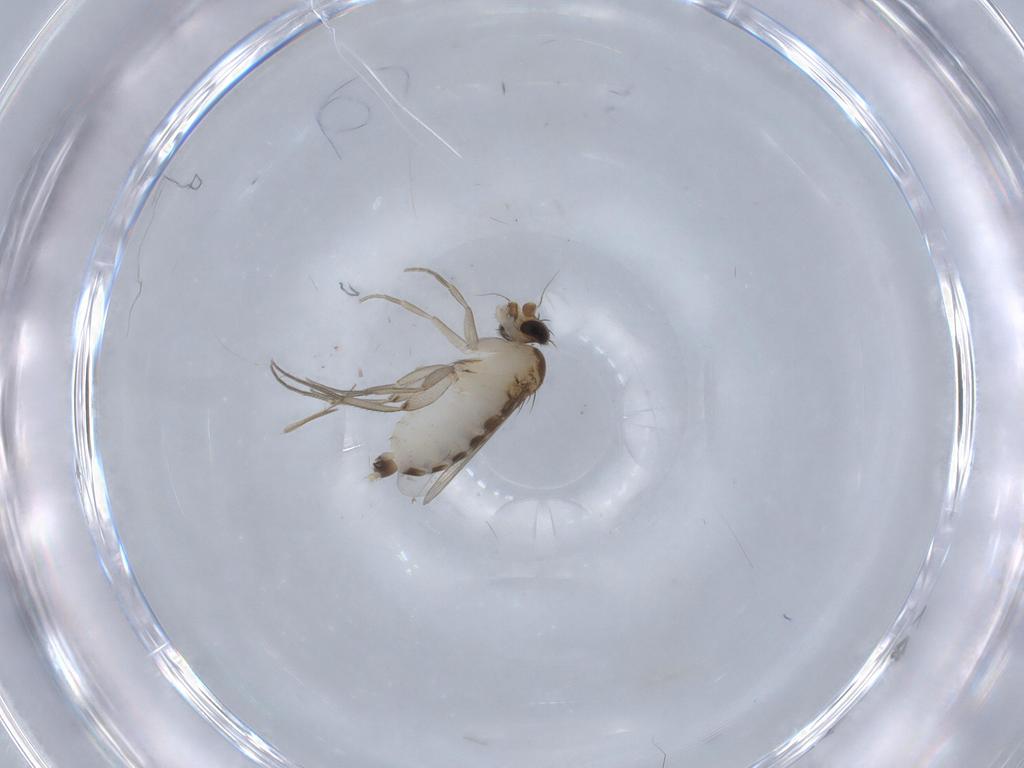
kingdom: Animalia
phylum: Arthropoda
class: Insecta
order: Diptera
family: Phoridae
